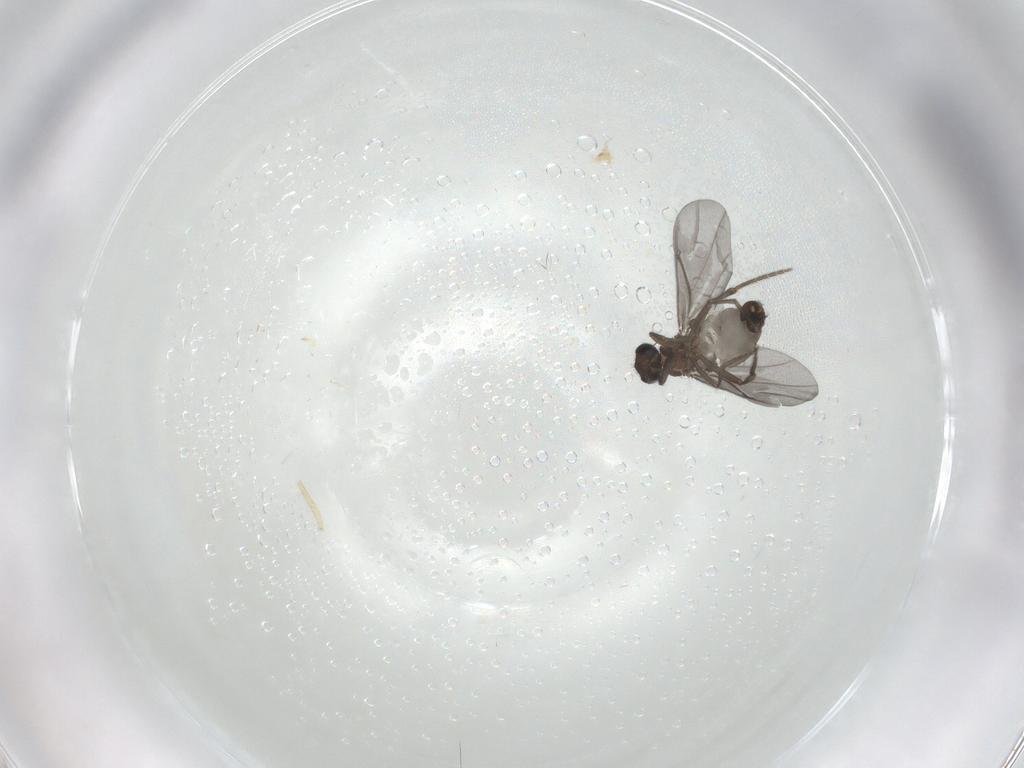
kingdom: Animalia
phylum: Arthropoda
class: Insecta
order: Diptera
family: Phoridae
